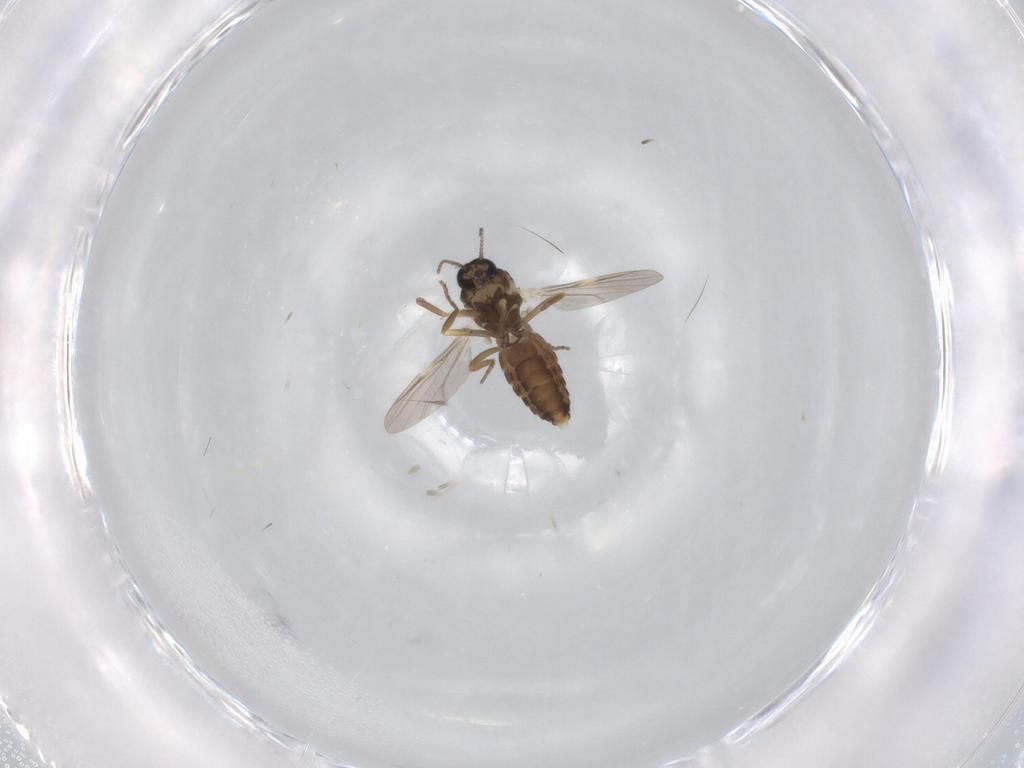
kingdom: Animalia
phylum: Arthropoda
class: Insecta
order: Diptera
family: Ceratopogonidae
